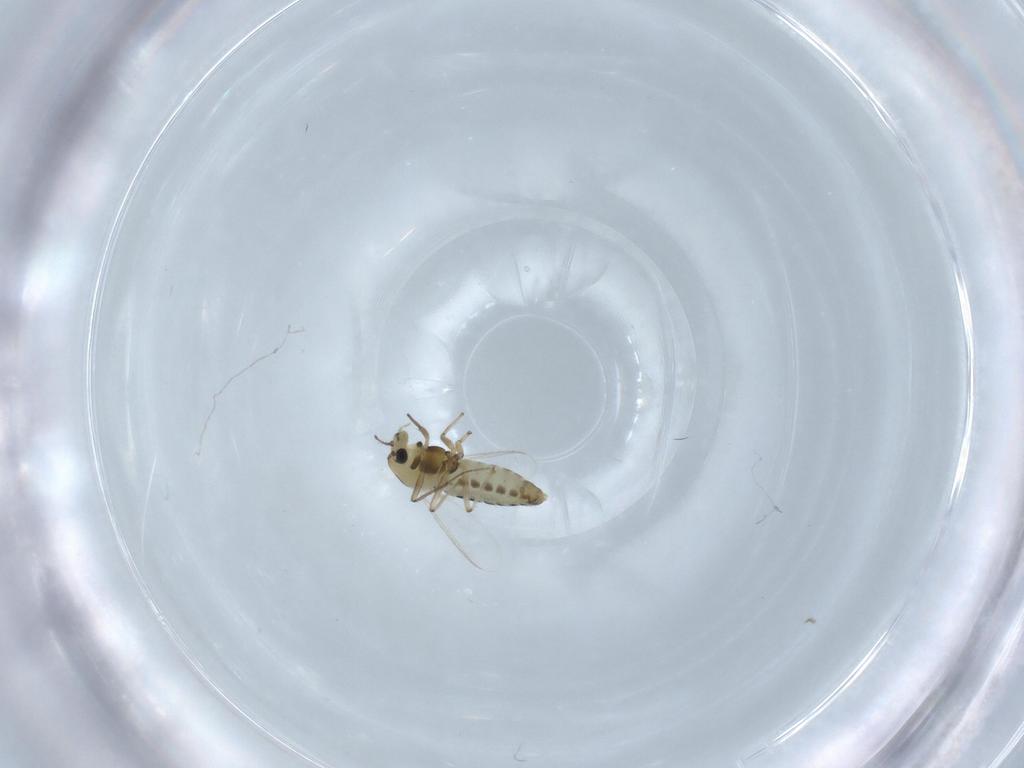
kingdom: Animalia
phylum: Arthropoda
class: Insecta
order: Diptera
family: Chironomidae
